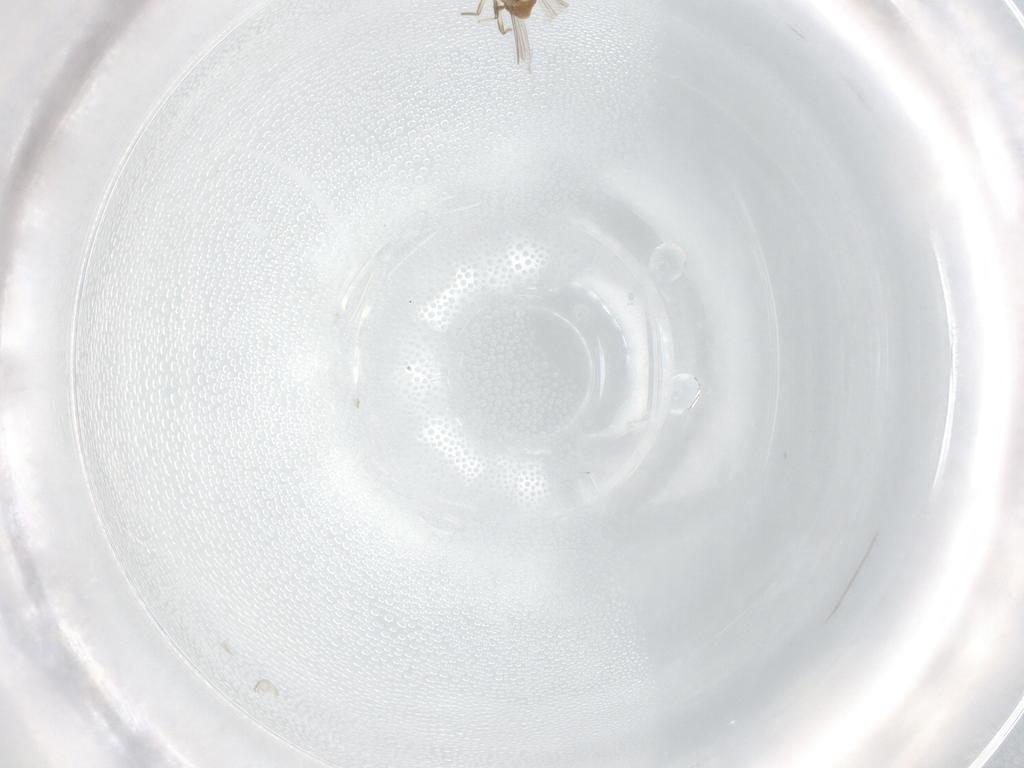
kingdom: Animalia
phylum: Arthropoda
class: Insecta
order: Diptera
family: Chironomidae
